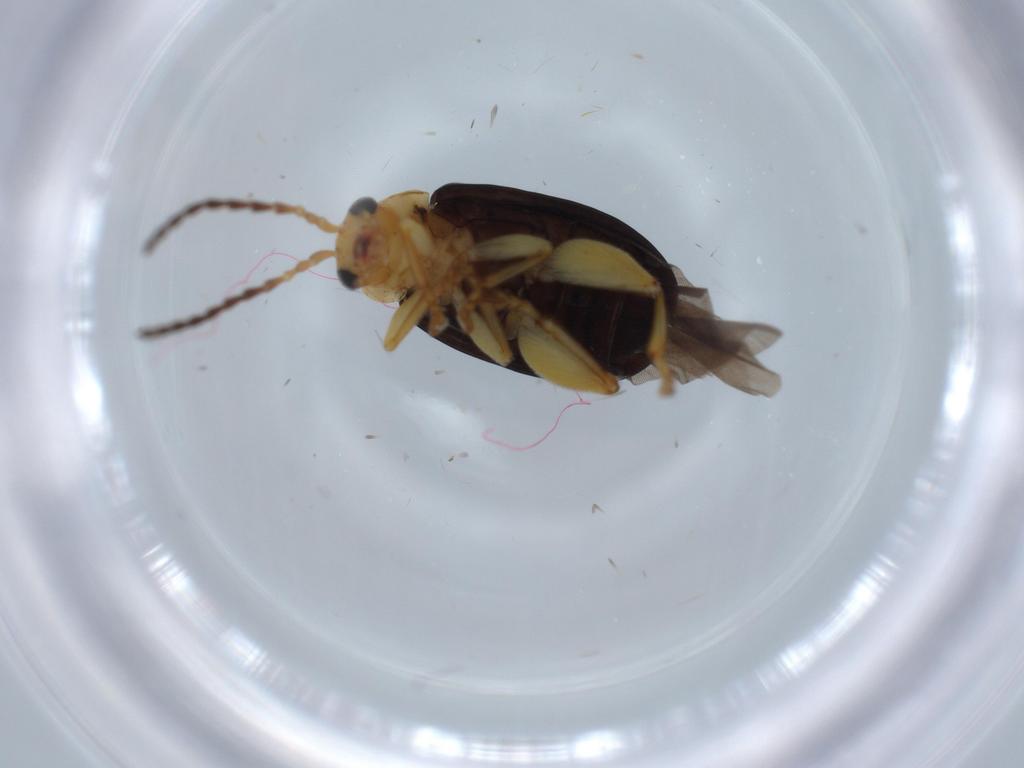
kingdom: Animalia
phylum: Arthropoda
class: Insecta
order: Coleoptera
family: Chrysomelidae
